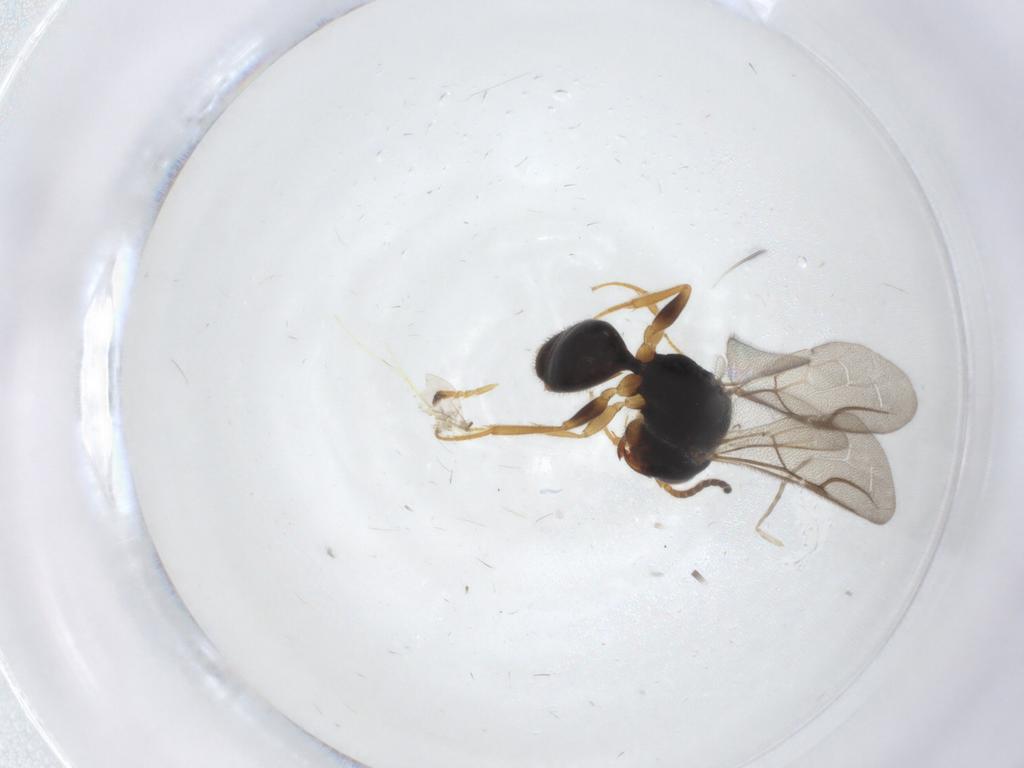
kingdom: Animalia
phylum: Arthropoda
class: Insecta
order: Hymenoptera
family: Bethylidae
